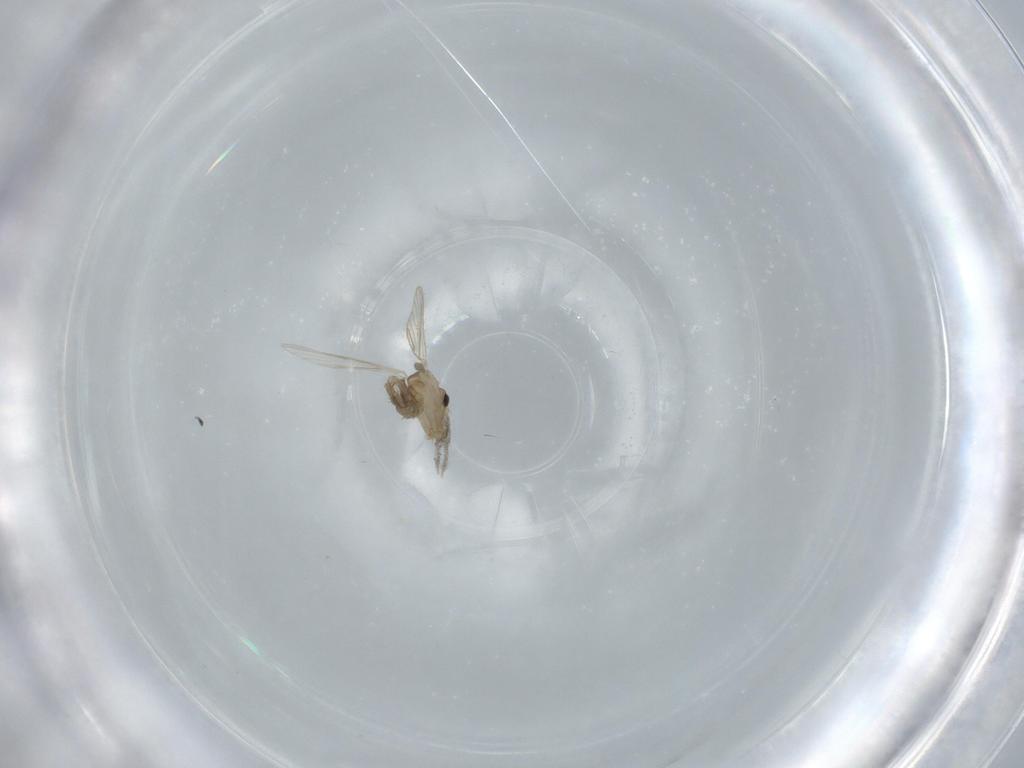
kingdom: Animalia
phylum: Arthropoda
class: Insecta
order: Diptera
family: Psychodidae
